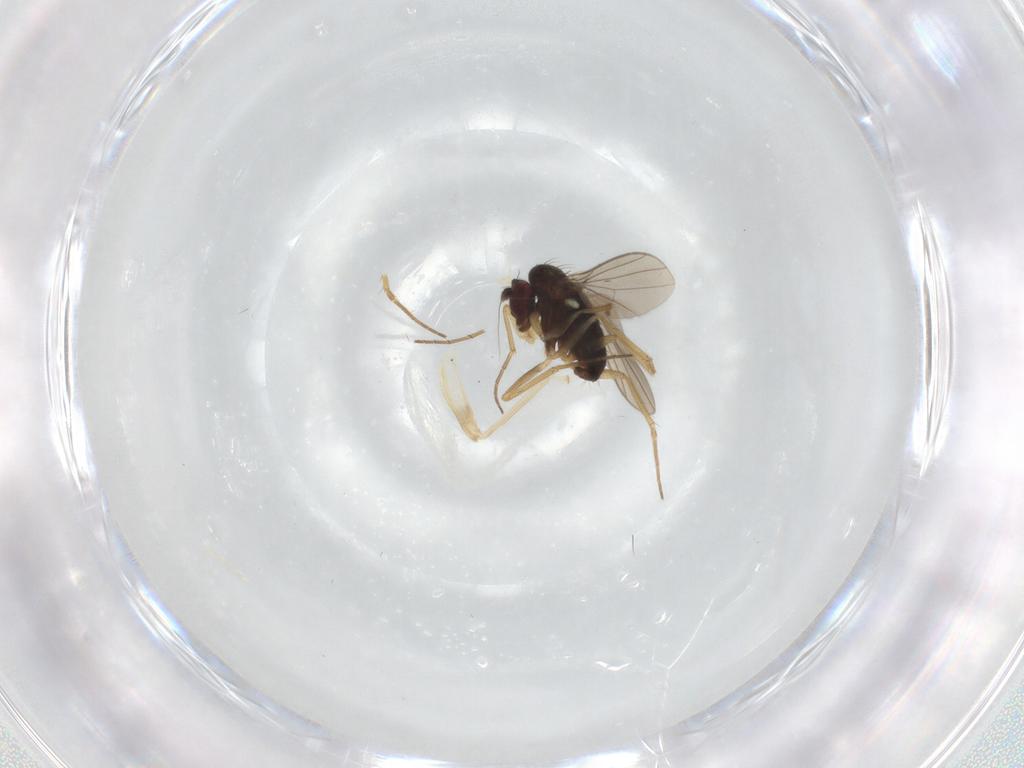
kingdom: Animalia
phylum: Arthropoda
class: Insecta
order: Diptera
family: Dolichopodidae
